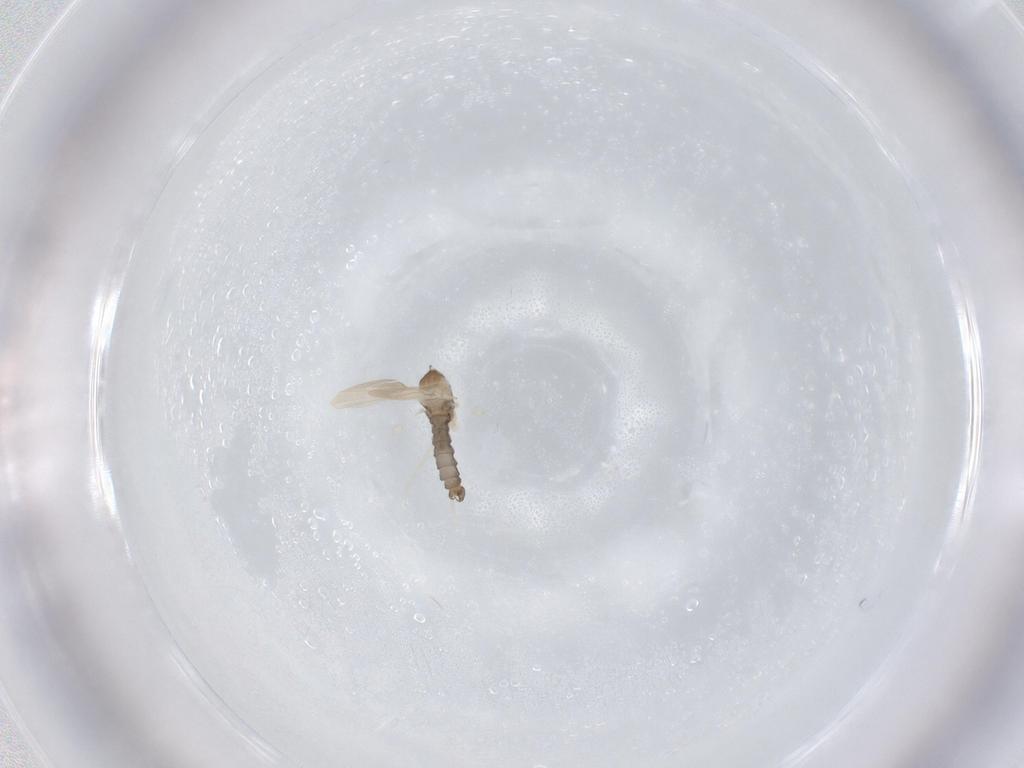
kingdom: Animalia
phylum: Arthropoda
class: Insecta
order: Diptera
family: Cecidomyiidae
